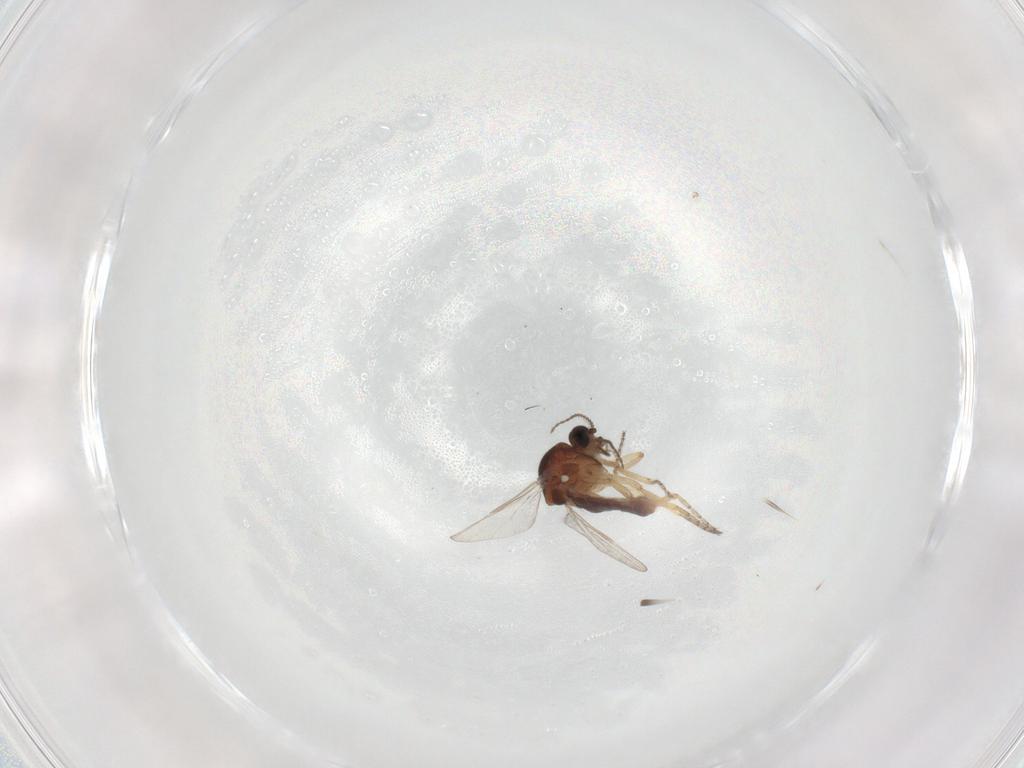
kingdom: Animalia
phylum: Arthropoda
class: Insecta
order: Diptera
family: Ceratopogonidae
